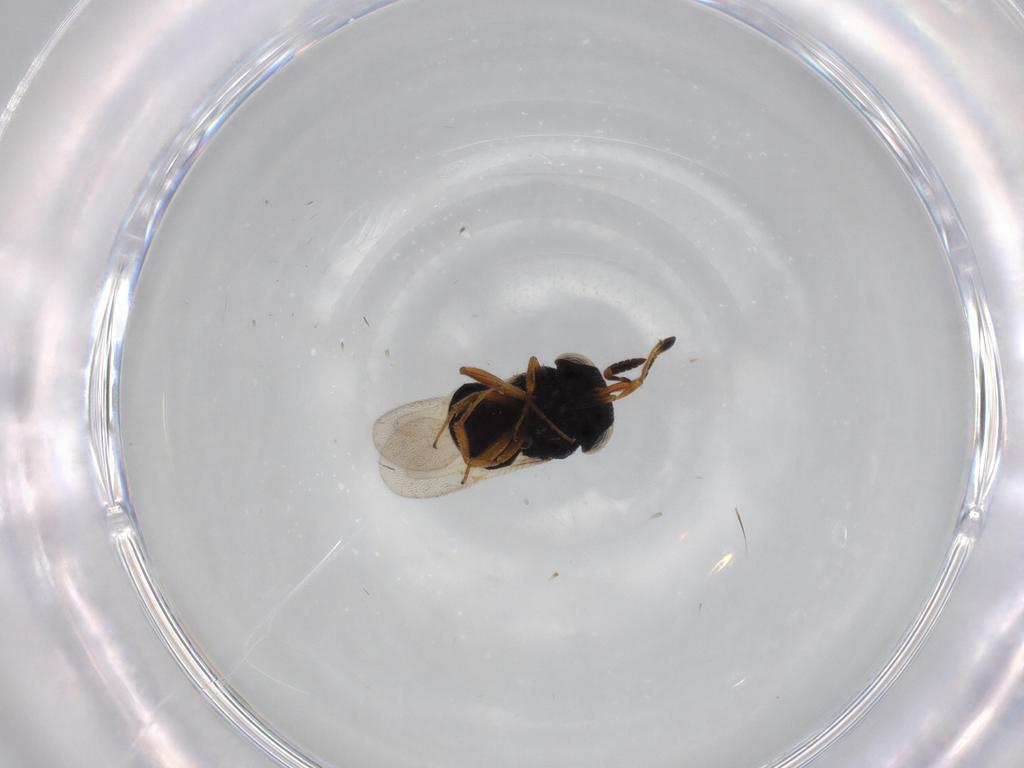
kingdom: Animalia
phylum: Arthropoda
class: Insecta
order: Hymenoptera
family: Scelionidae
